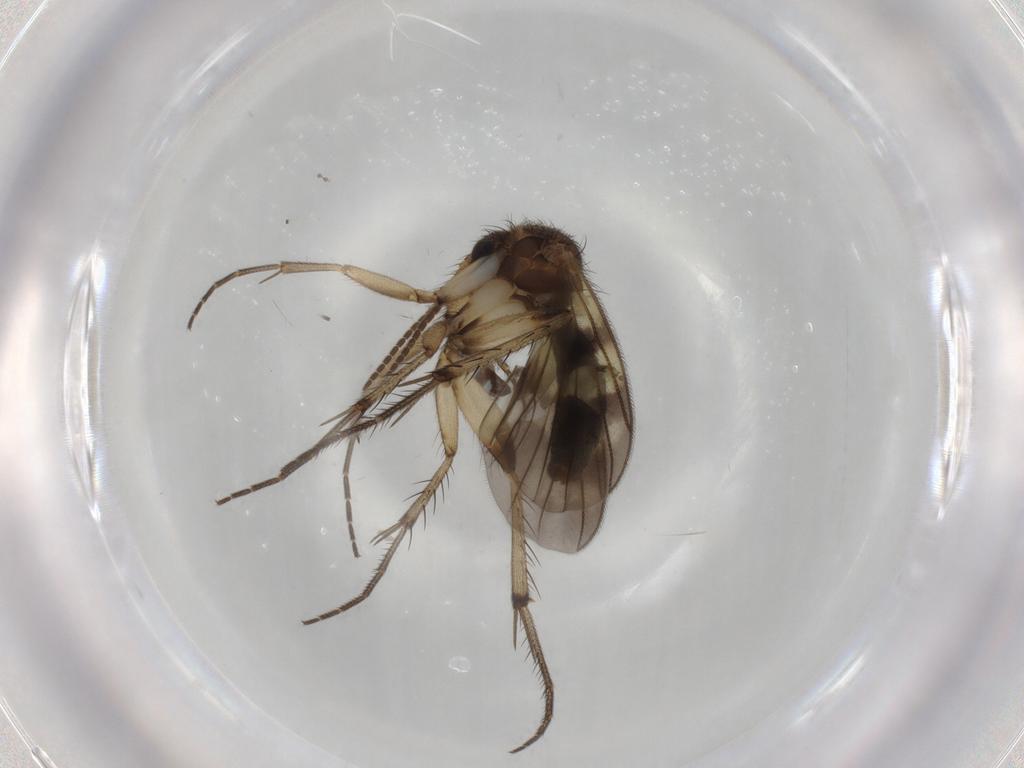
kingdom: Animalia
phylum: Arthropoda
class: Insecta
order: Diptera
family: Mycetophilidae
